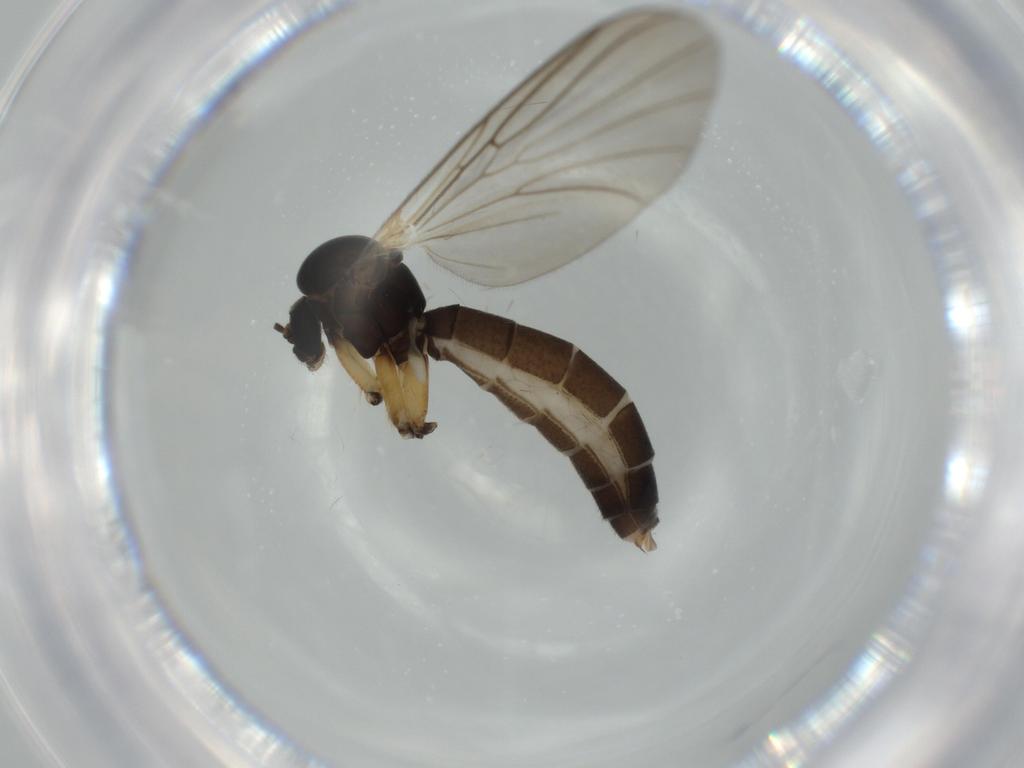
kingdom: Animalia
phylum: Arthropoda
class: Insecta
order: Diptera
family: Mycetophilidae
